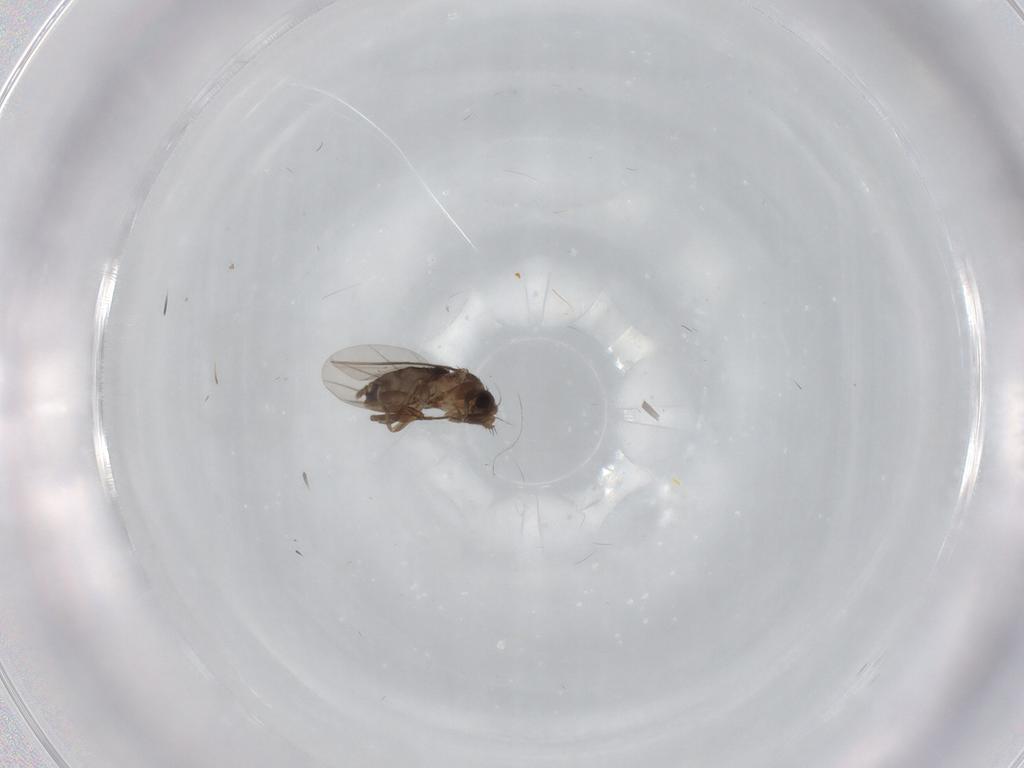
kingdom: Animalia
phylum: Arthropoda
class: Insecta
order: Diptera
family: Phoridae
